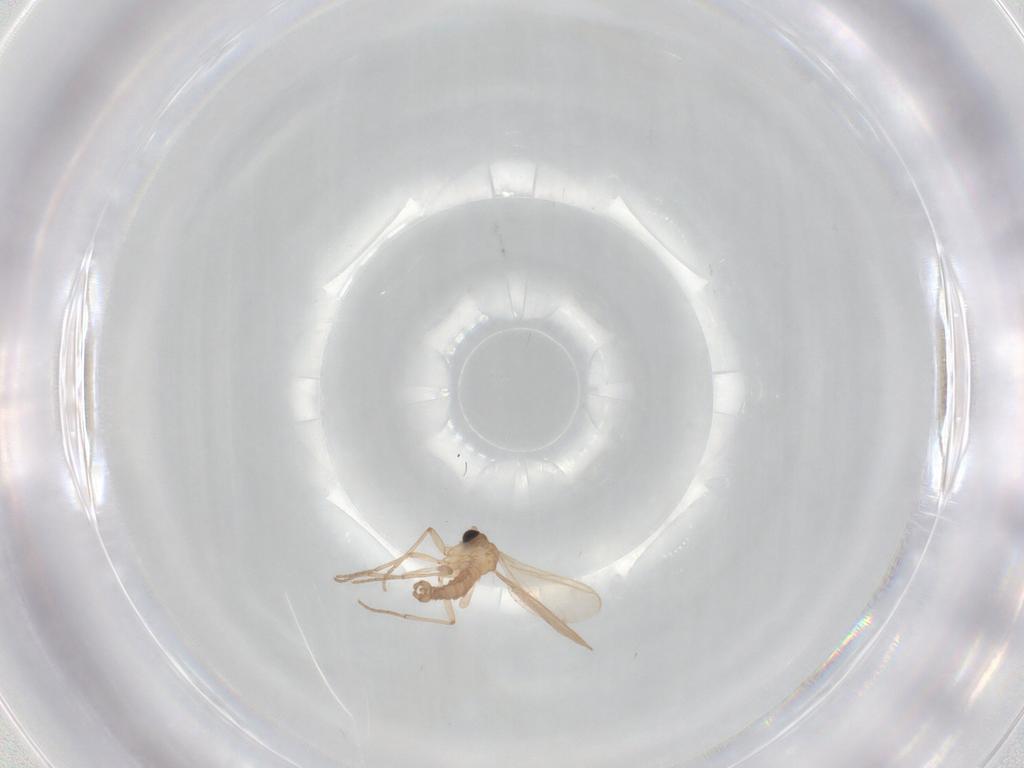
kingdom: Animalia
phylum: Arthropoda
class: Insecta
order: Diptera
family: Sciaridae
